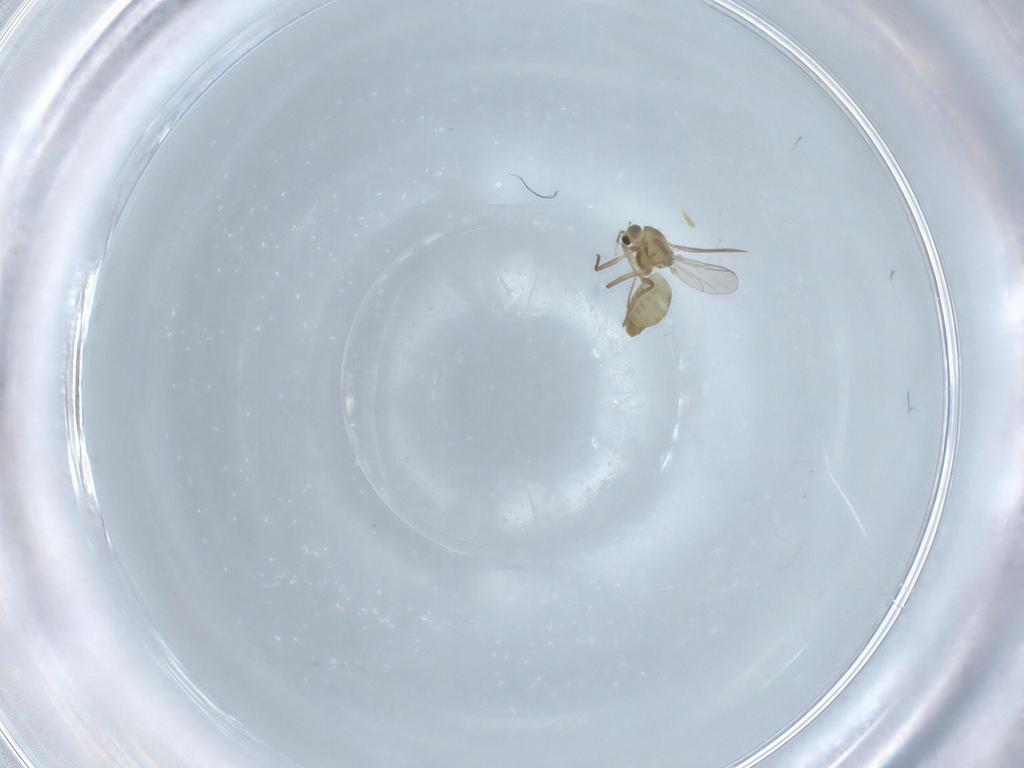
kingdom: Animalia
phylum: Arthropoda
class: Insecta
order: Diptera
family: Chironomidae
